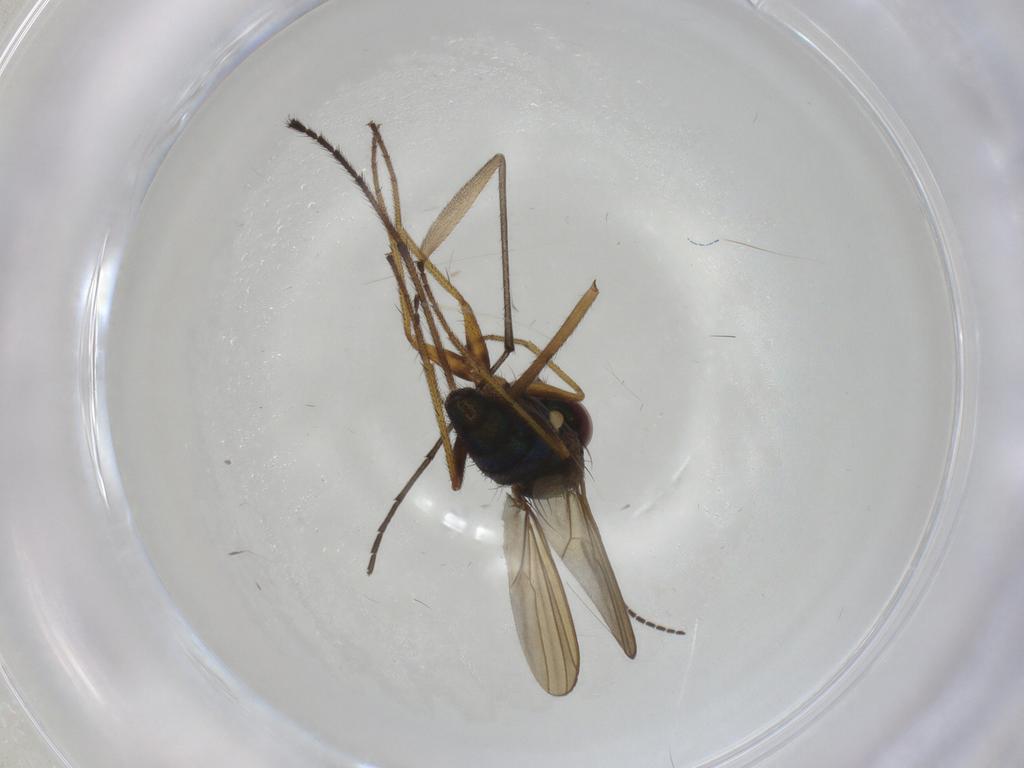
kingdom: Animalia
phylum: Arthropoda
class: Insecta
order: Diptera
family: Dolichopodidae
